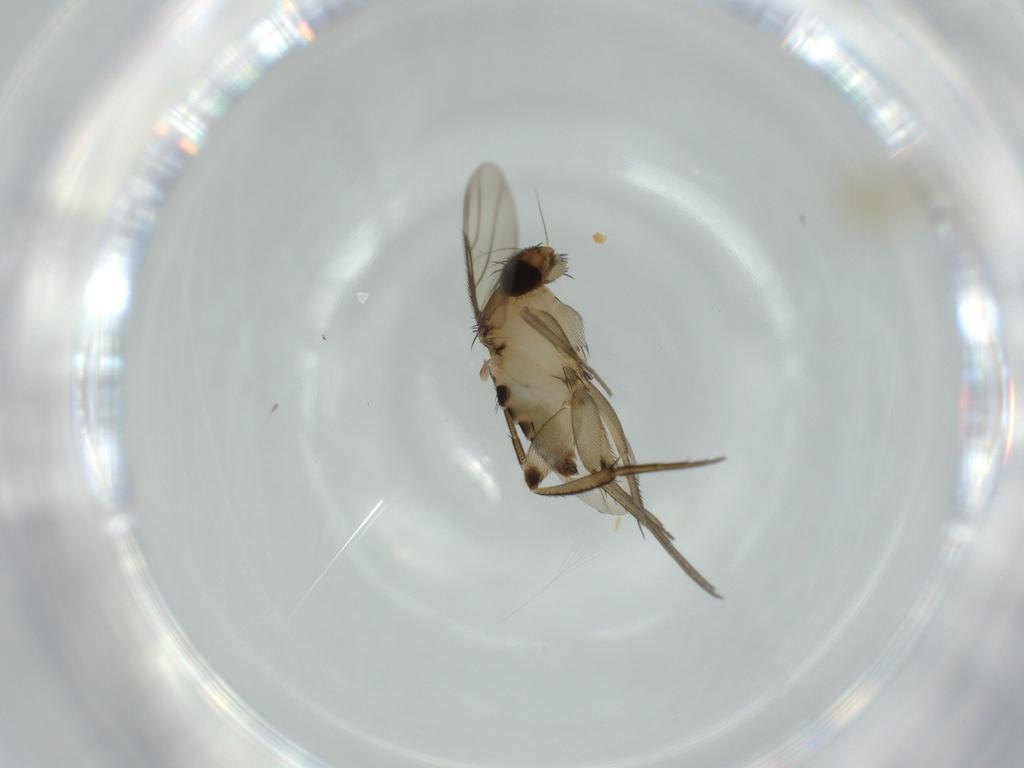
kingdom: Animalia
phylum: Arthropoda
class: Insecta
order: Diptera
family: Phoridae
